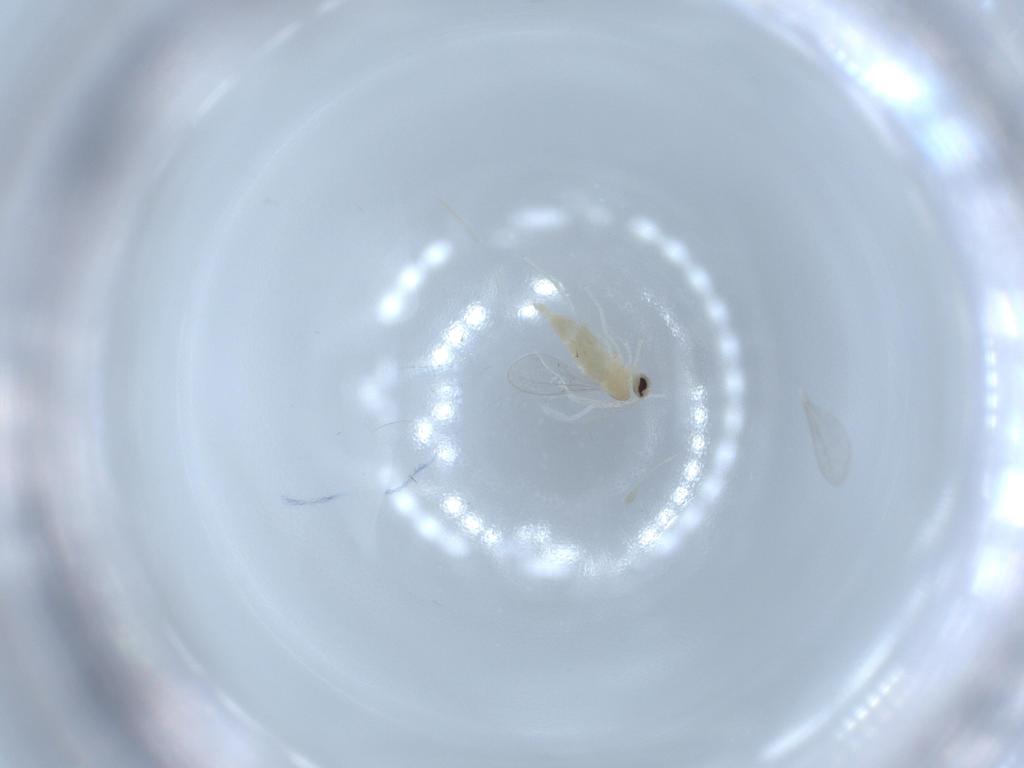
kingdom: Animalia
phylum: Arthropoda
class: Insecta
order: Diptera
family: Cecidomyiidae
